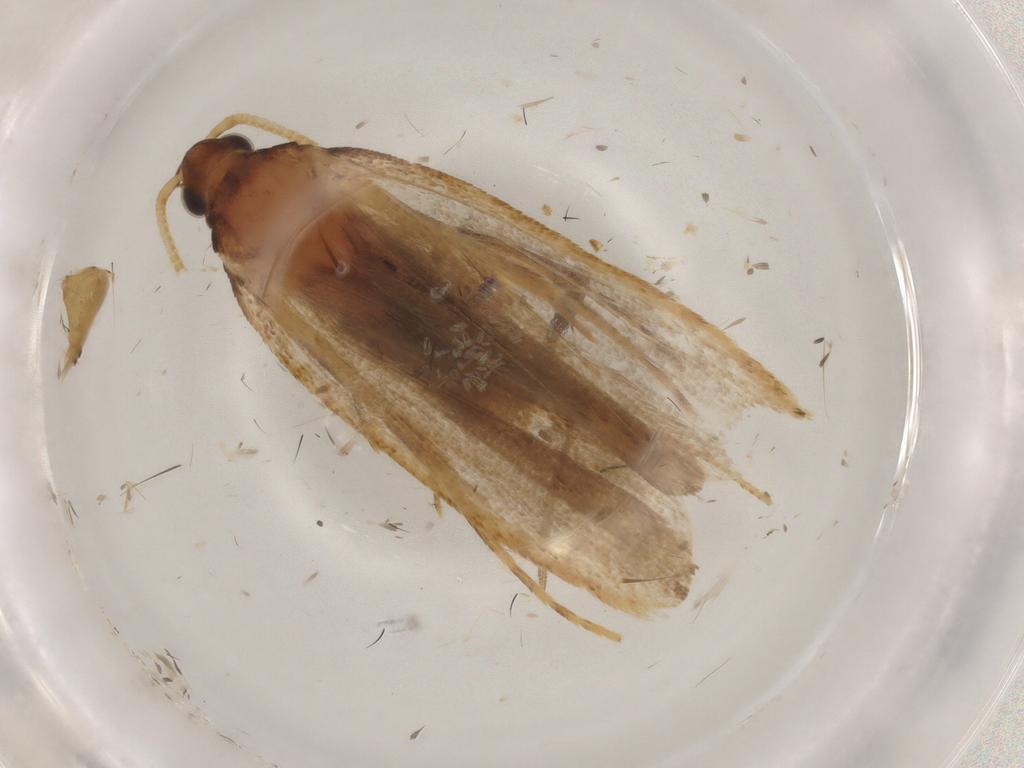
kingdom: Animalia
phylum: Arthropoda
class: Insecta
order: Lepidoptera
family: Lecithoceridae
